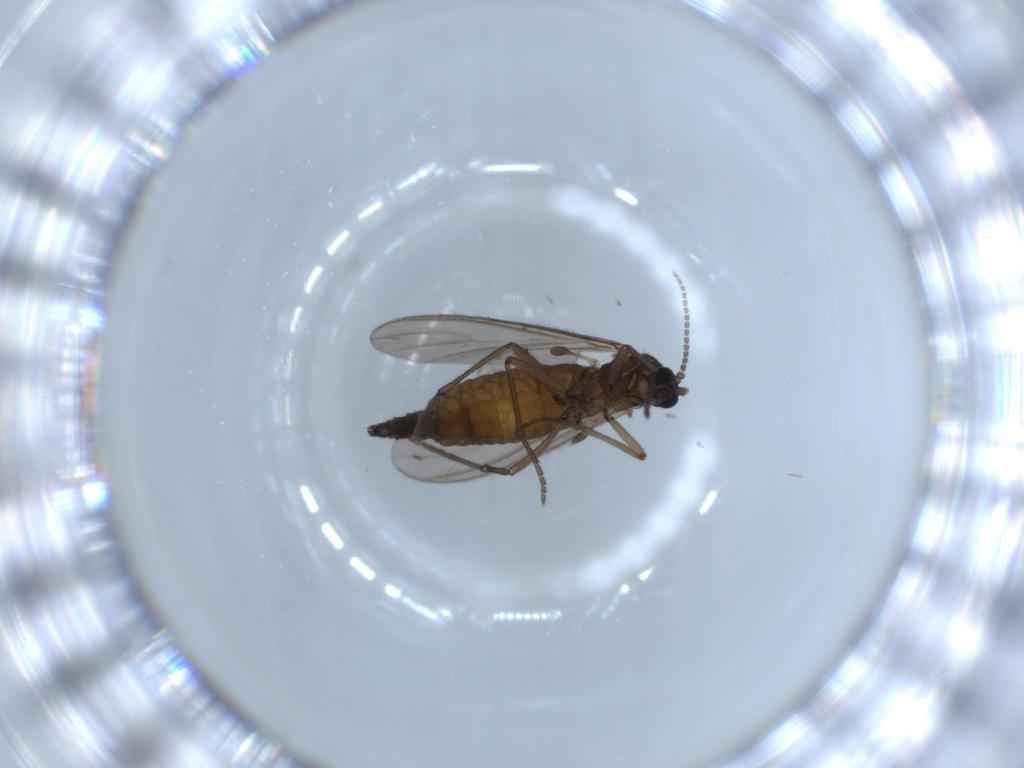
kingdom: Animalia
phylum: Arthropoda
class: Insecta
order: Diptera
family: Sciaridae
